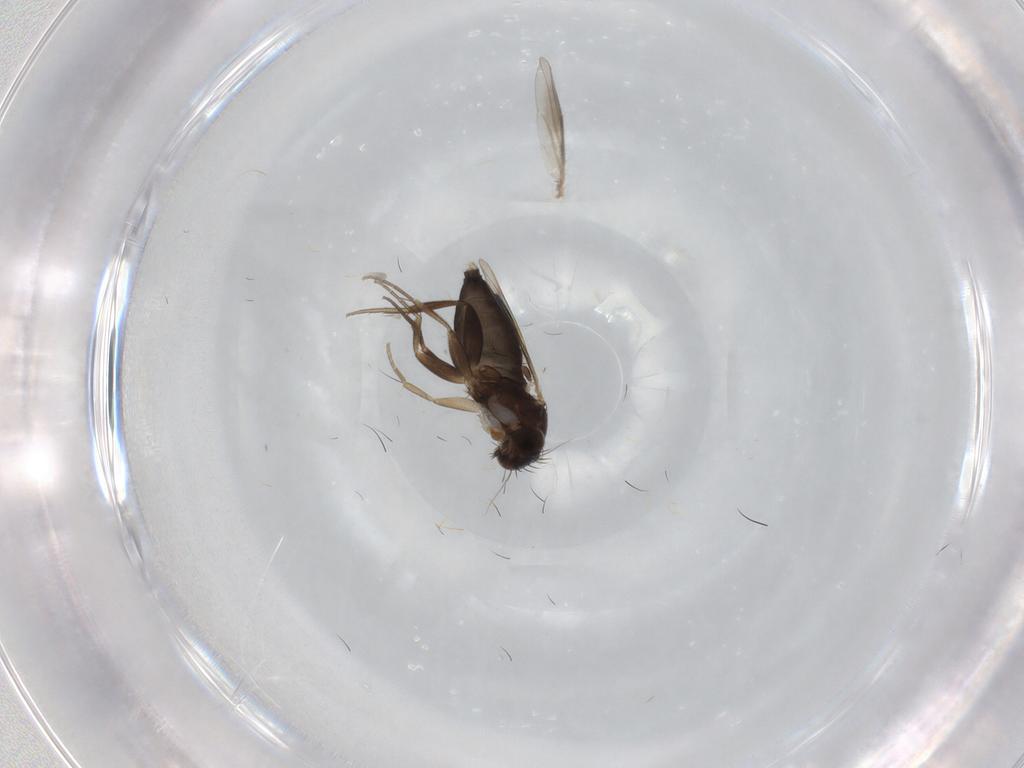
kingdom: Animalia
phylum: Arthropoda
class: Insecta
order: Diptera
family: Phoridae
